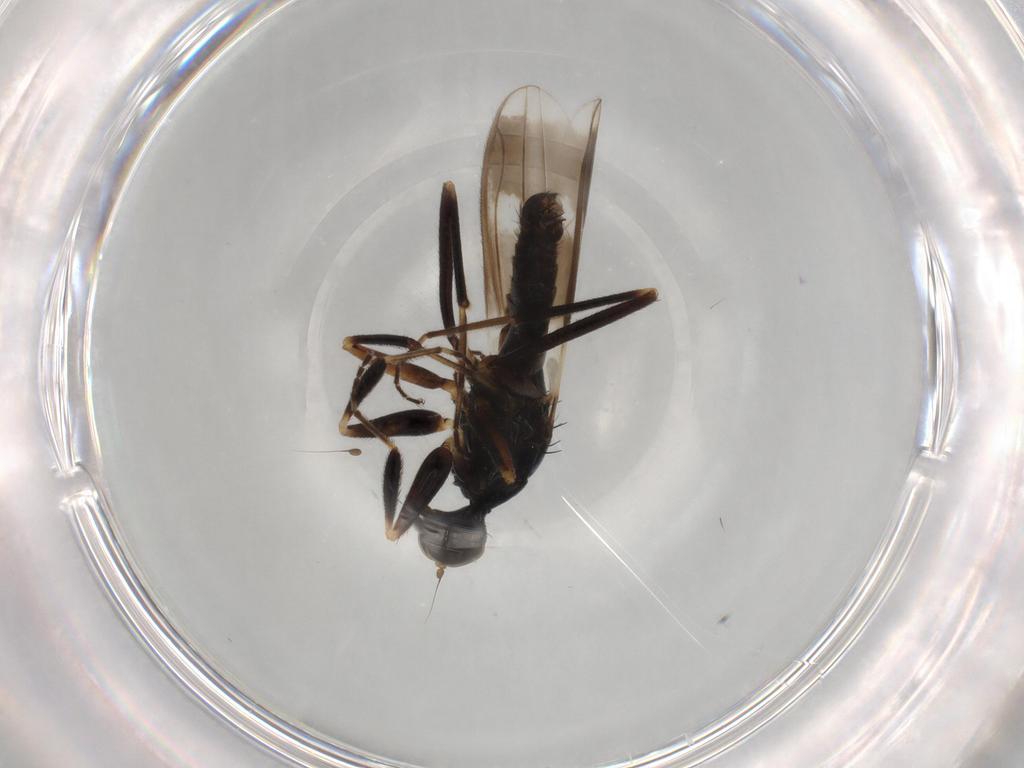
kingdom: Animalia
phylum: Arthropoda
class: Insecta
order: Diptera
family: Hybotidae
